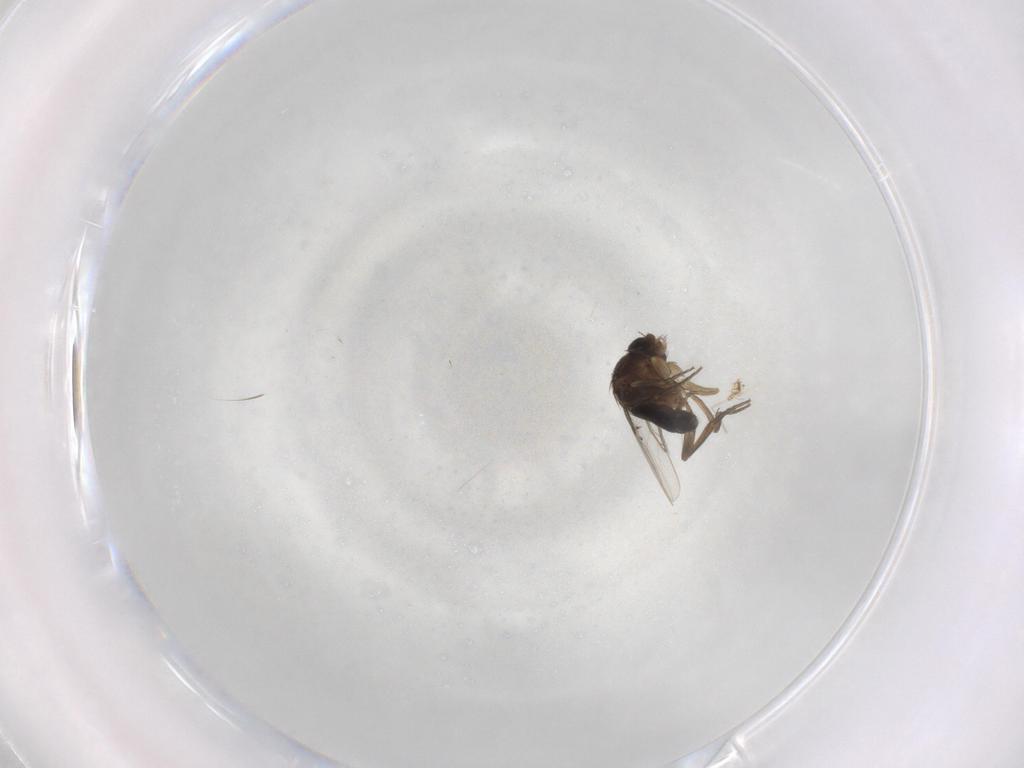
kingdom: Animalia
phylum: Arthropoda
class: Insecta
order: Diptera
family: Phoridae
